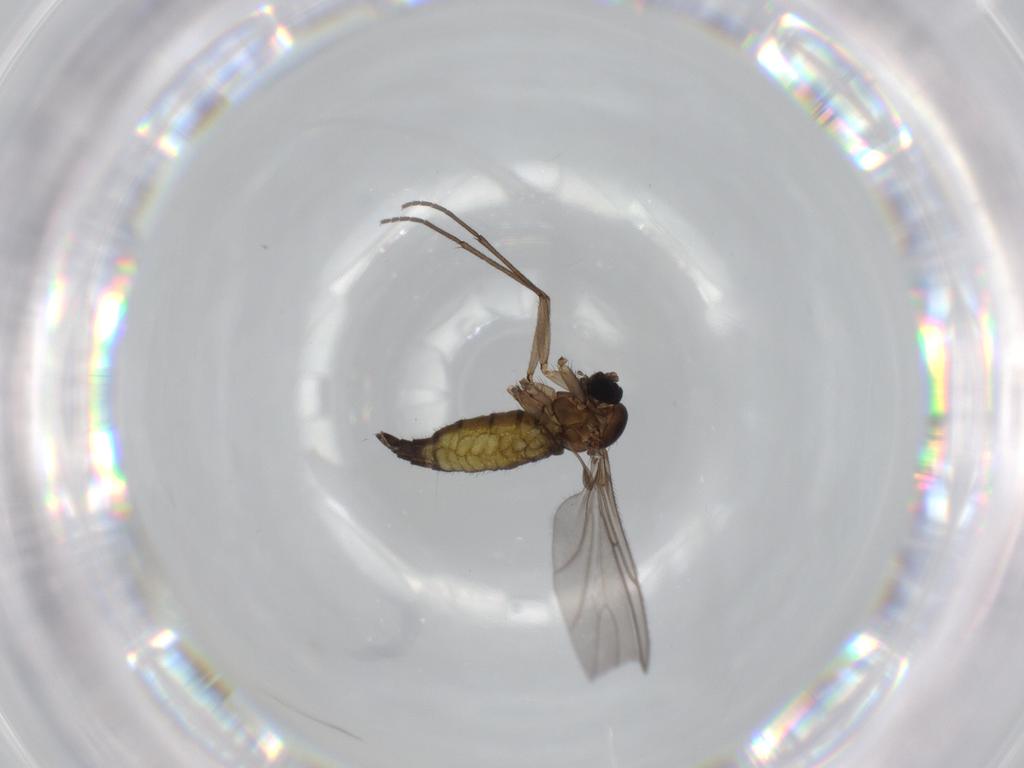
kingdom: Animalia
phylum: Arthropoda
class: Insecta
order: Diptera
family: Sciaridae
